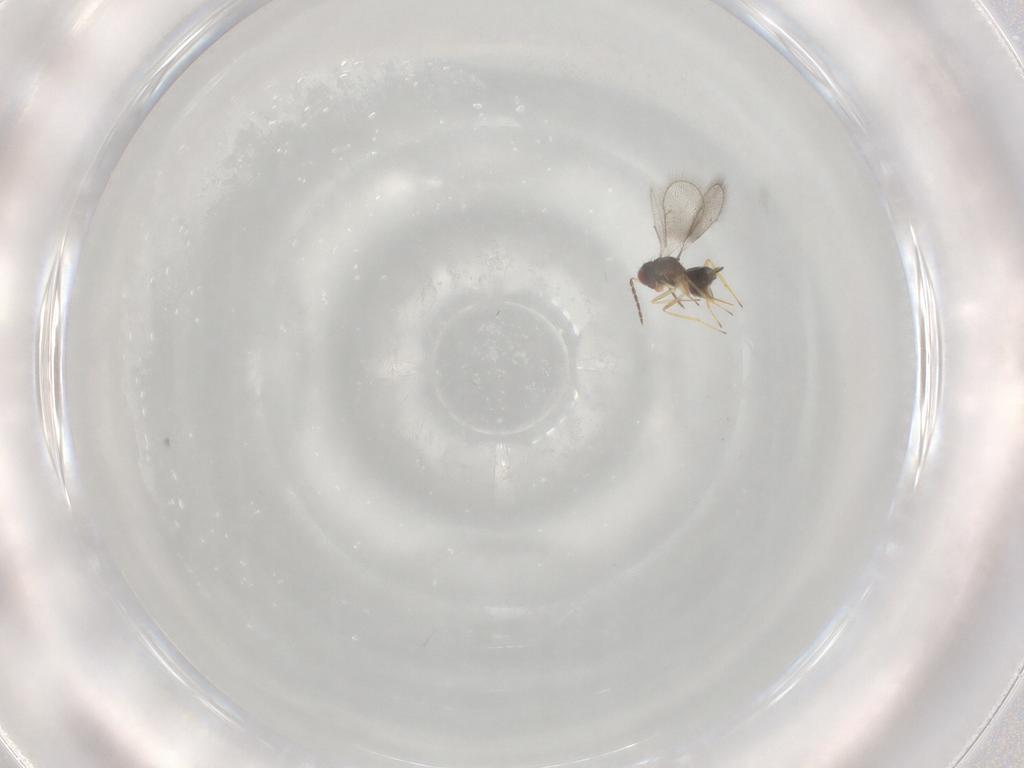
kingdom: Animalia
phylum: Arthropoda
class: Insecta
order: Hymenoptera
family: Eulophidae
